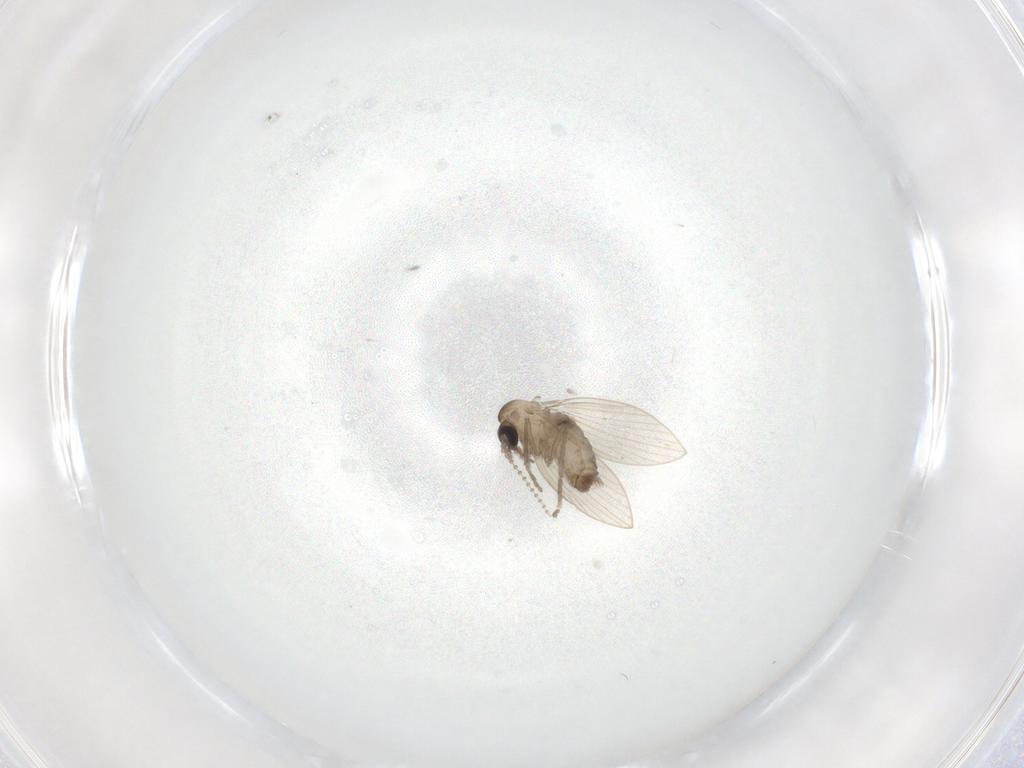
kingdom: Animalia
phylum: Arthropoda
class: Insecta
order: Diptera
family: Psychodidae
